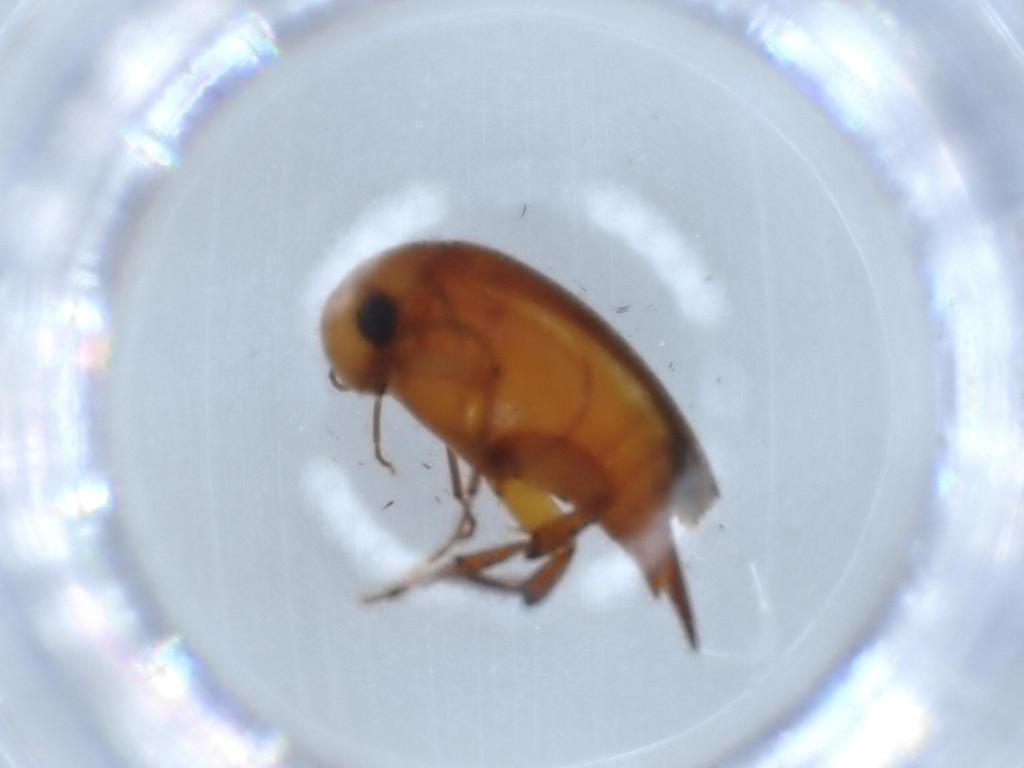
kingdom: Animalia
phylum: Arthropoda
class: Insecta
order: Coleoptera
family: Mordellidae
